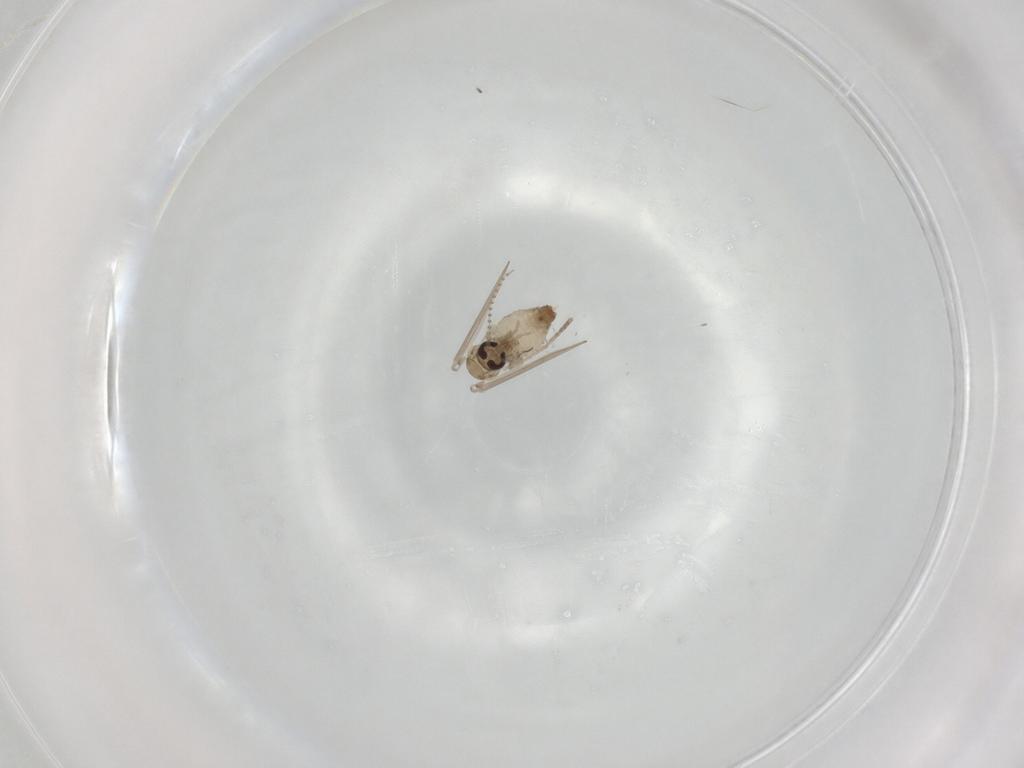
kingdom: Animalia
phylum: Arthropoda
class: Insecta
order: Diptera
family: Psychodidae
